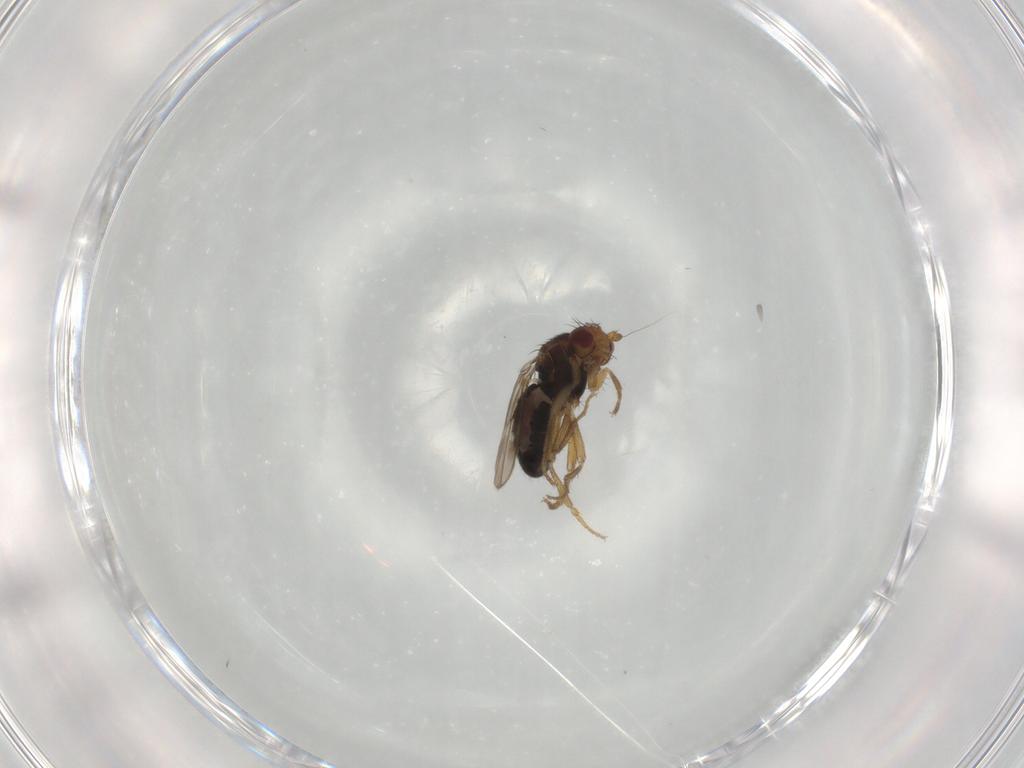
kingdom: Animalia
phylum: Arthropoda
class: Insecta
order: Diptera
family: Sphaeroceridae
